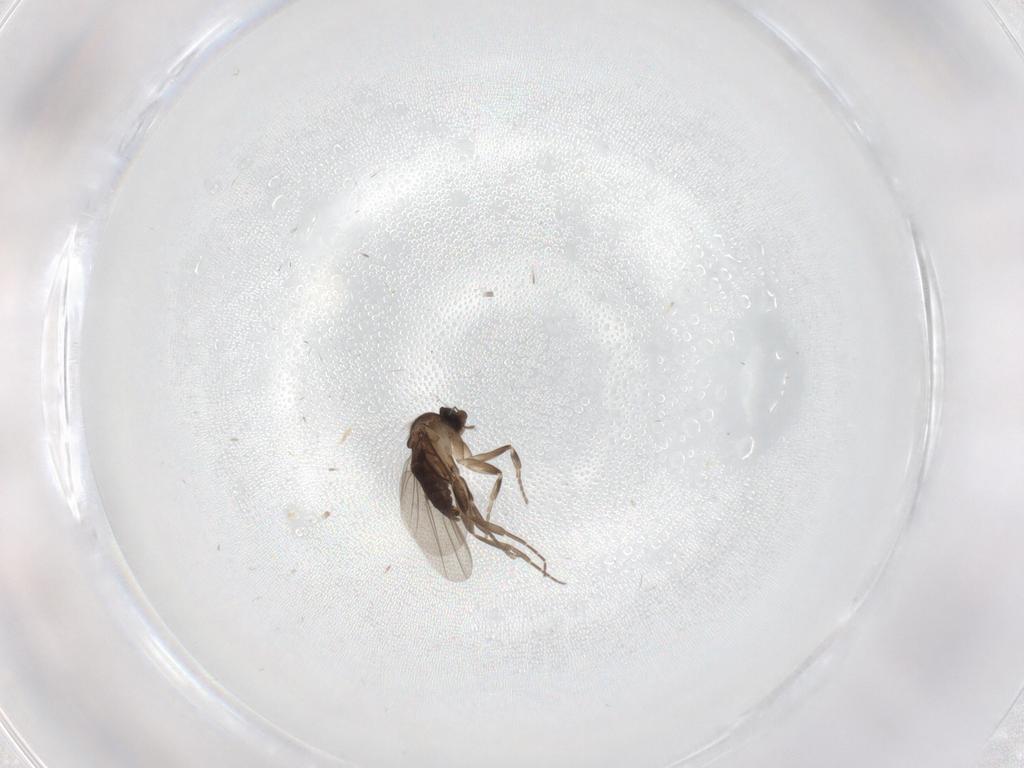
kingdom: Animalia
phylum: Arthropoda
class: Insecta
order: Diptera
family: Phoridae
